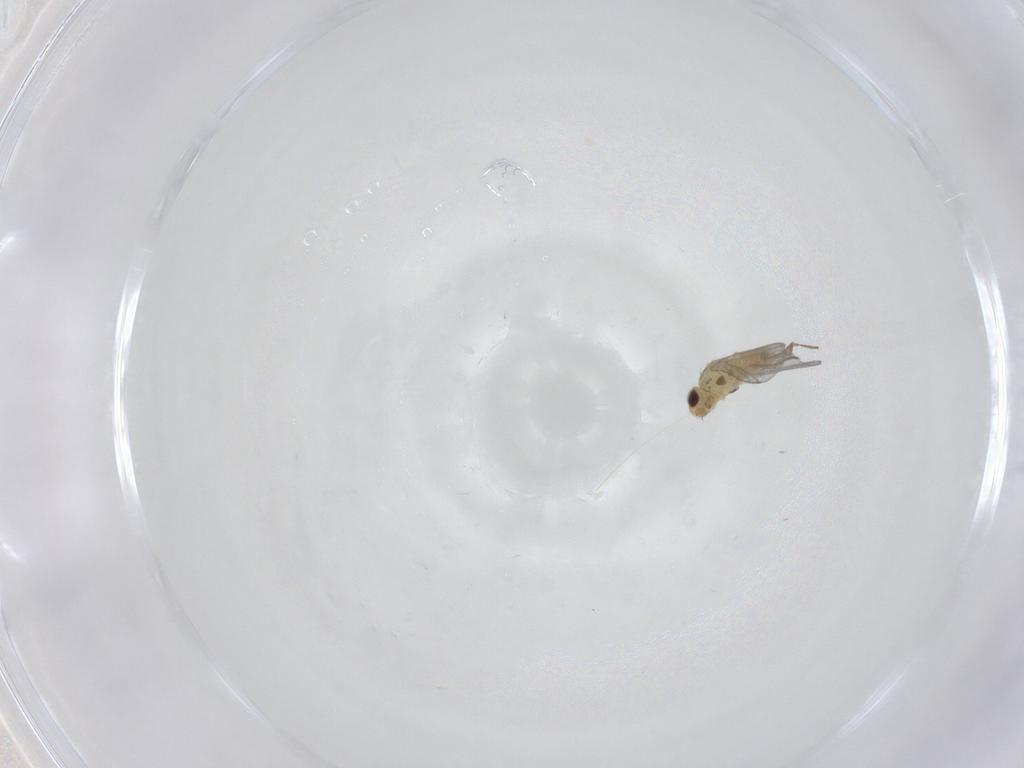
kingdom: Animalia
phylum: Arthropoda
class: Insecta
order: Diptera
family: Agromyzidae
